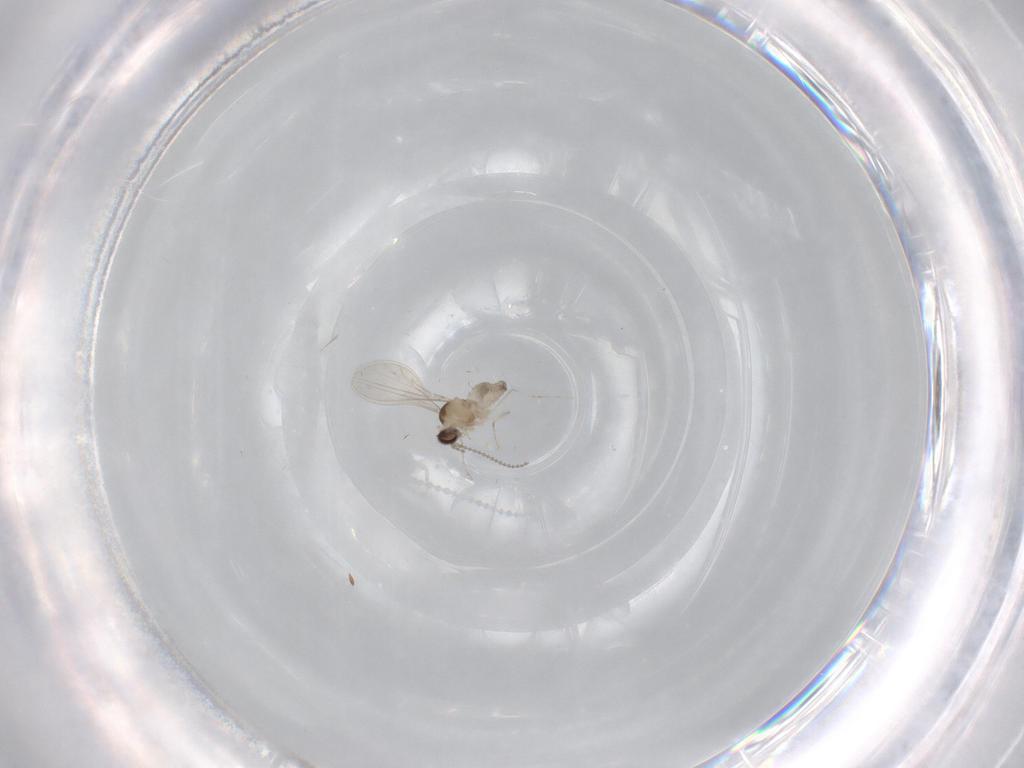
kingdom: Animalia
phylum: Arthropoda
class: Insecta
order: Diptera
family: Cecidomyiidae
